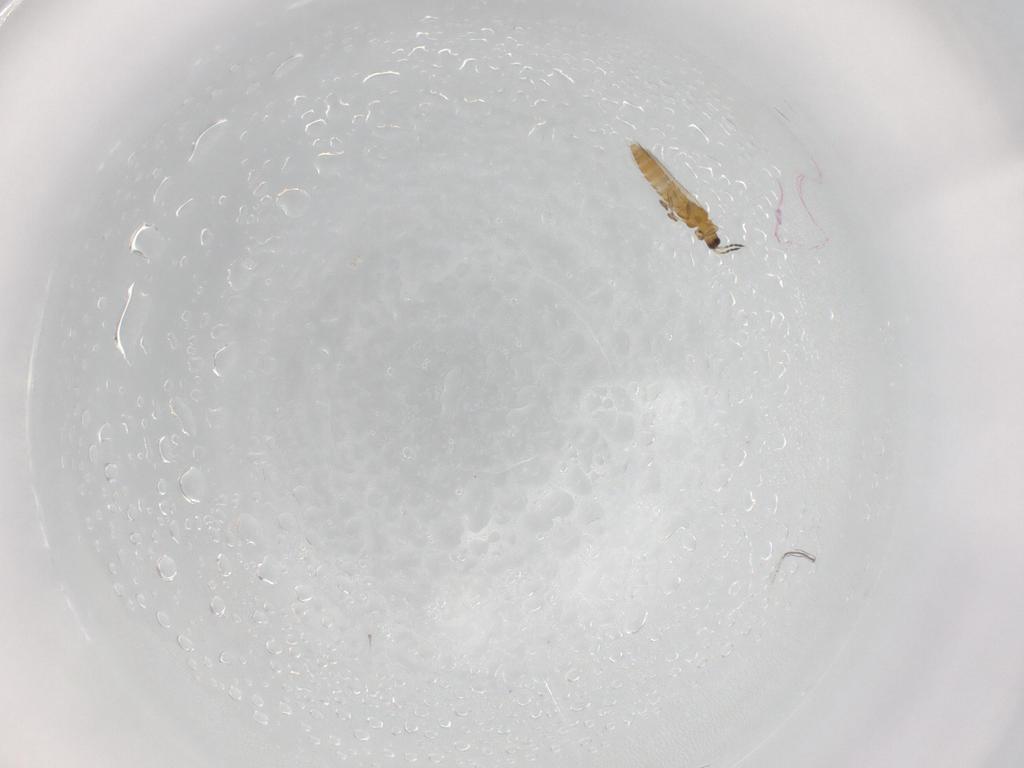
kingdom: Animalia
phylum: Arthropoda
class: Insecta
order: Thysanoptera
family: Thripidae
